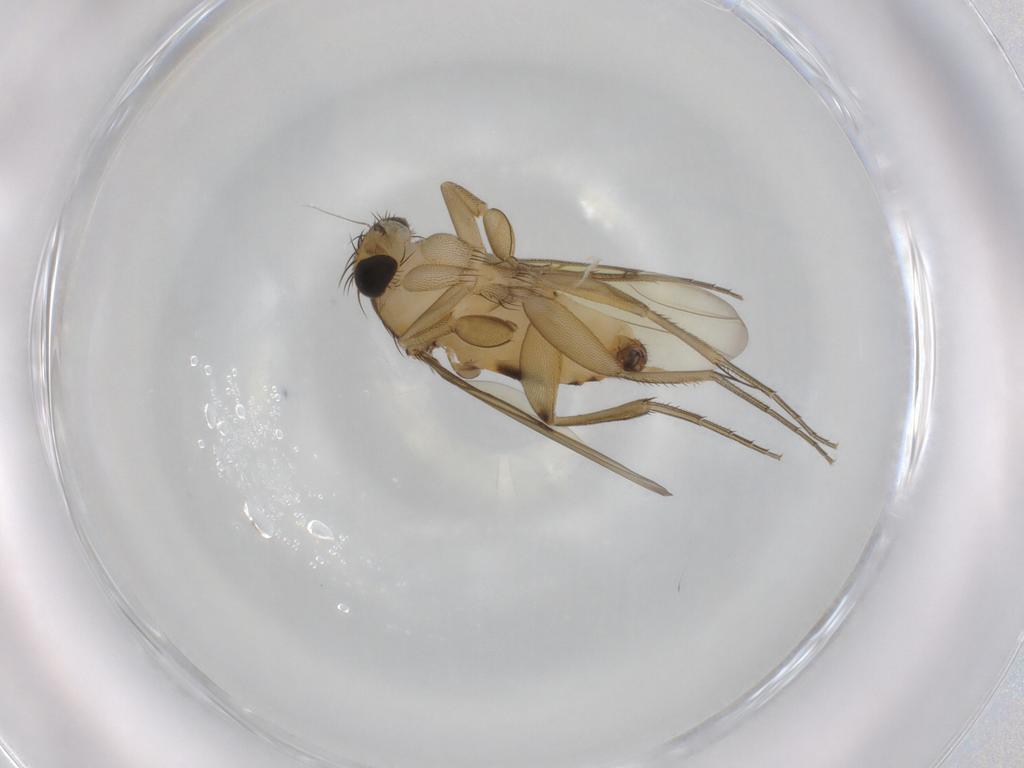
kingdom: Animalia
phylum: Arthropoda
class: Insecta
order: Diptera
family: Phoridae
